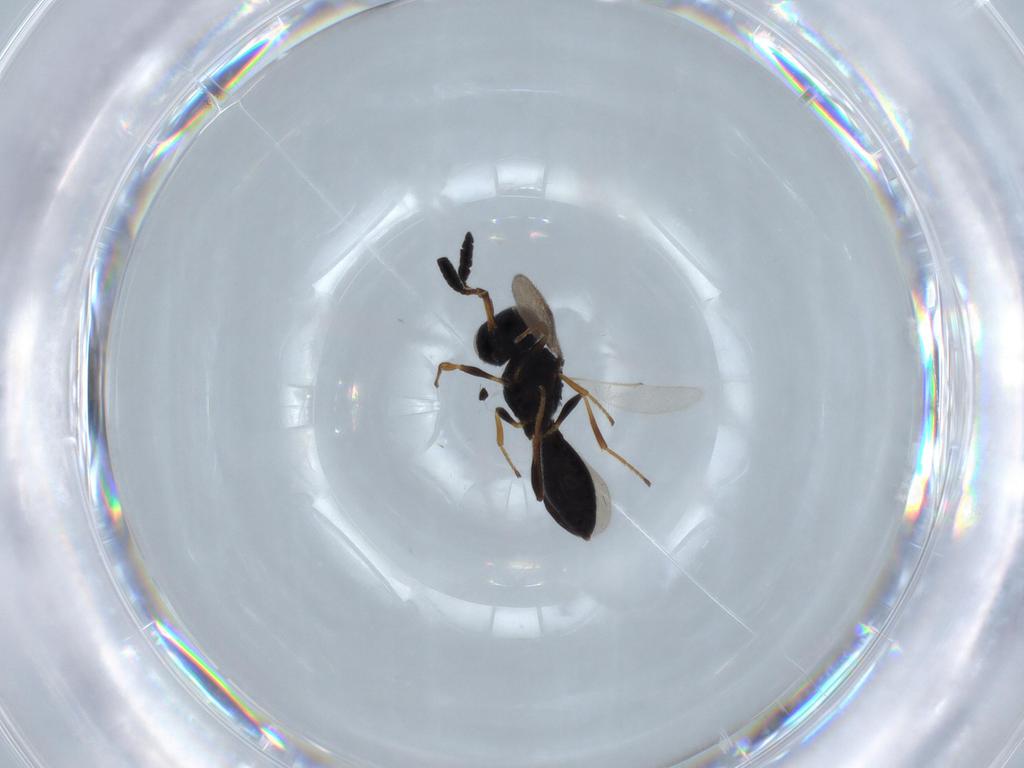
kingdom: Animalia
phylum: Arthropoda
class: Insecta
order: Hymenoptera
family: Scelionidae
